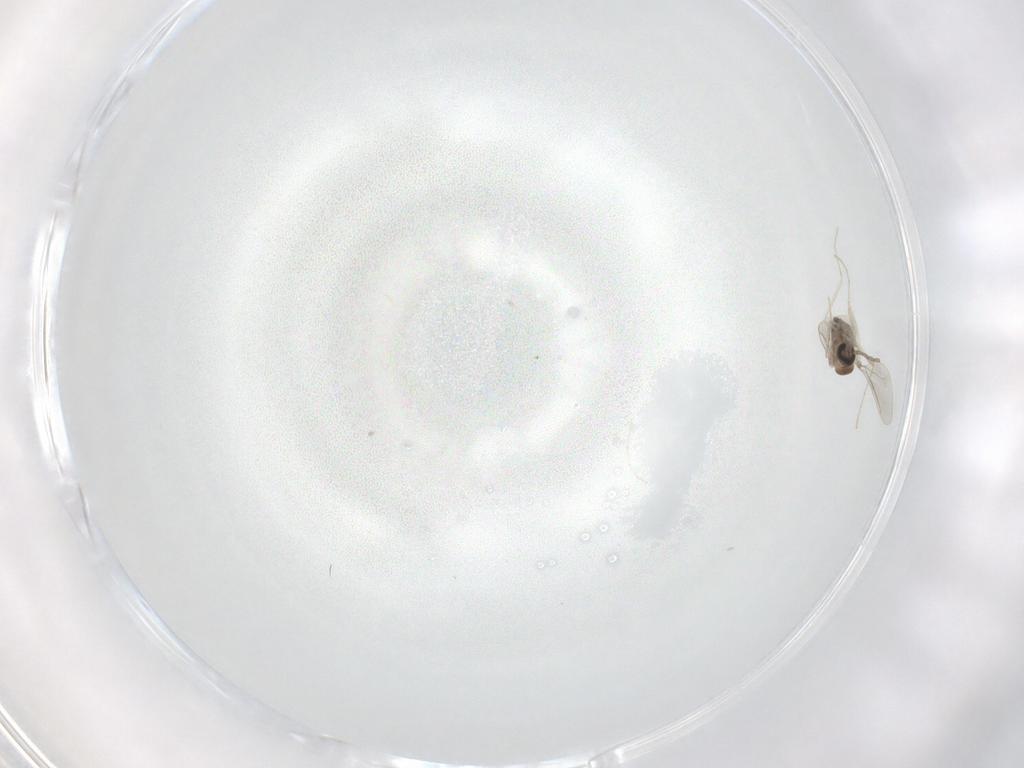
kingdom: Animalia
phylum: Arthropoda
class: Insecta
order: Diptera
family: Cecidomyiidae
